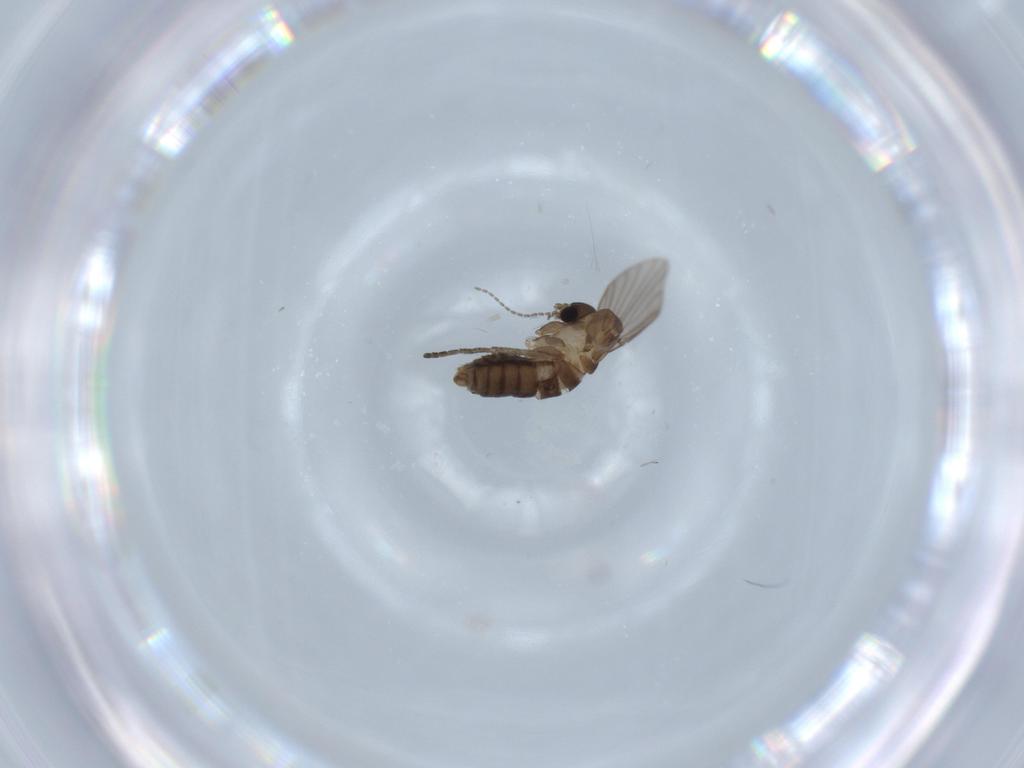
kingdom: Animalia
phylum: Arthropoda
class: Insecta
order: Diptera
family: Psychodidae
